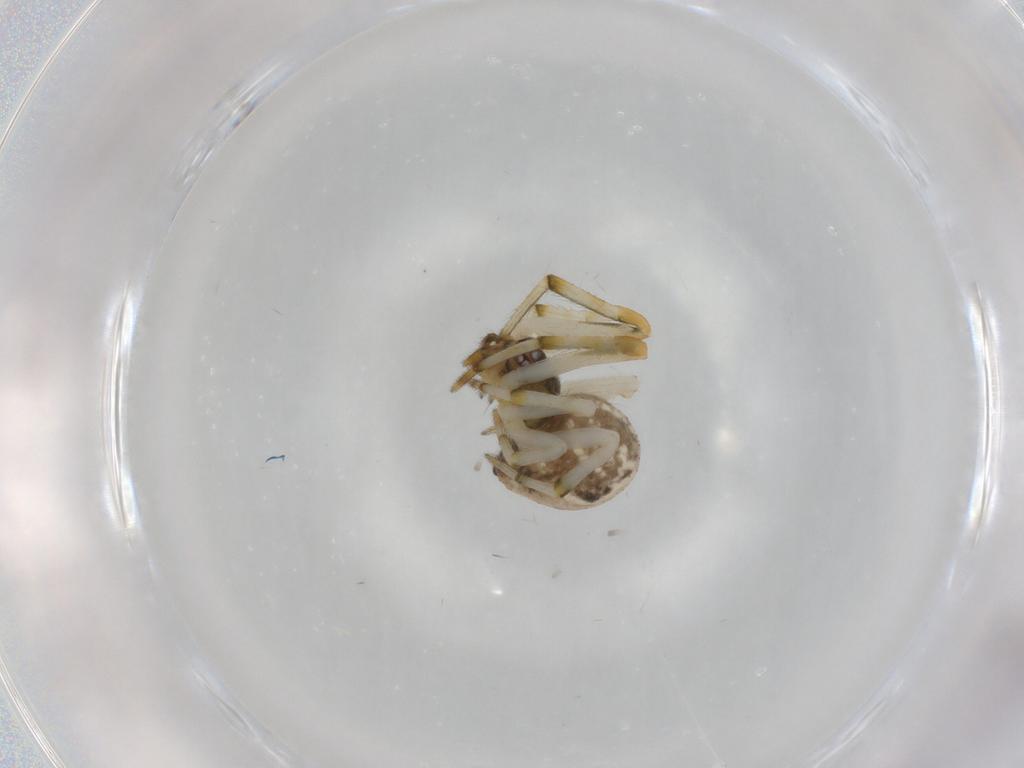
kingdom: Animalia
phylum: Arthropoda
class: Arachnida
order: Araneae
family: Theridiidae
